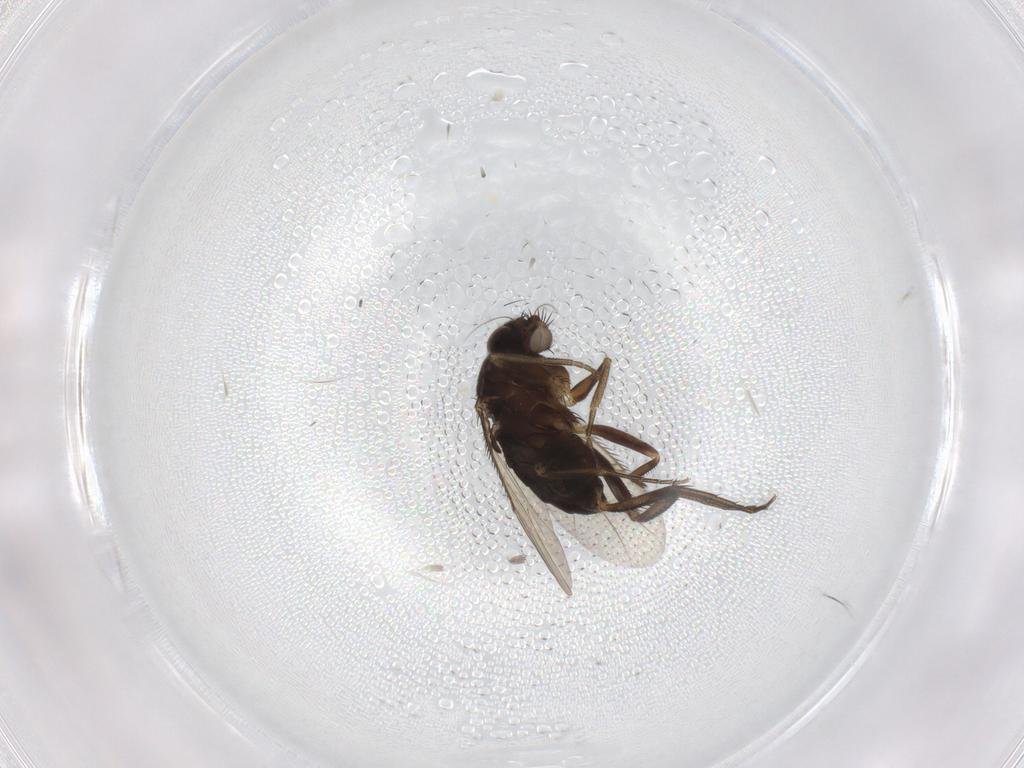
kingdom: Animalia
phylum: Arthropoda
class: Insecta
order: Diptera
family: Phoridae
